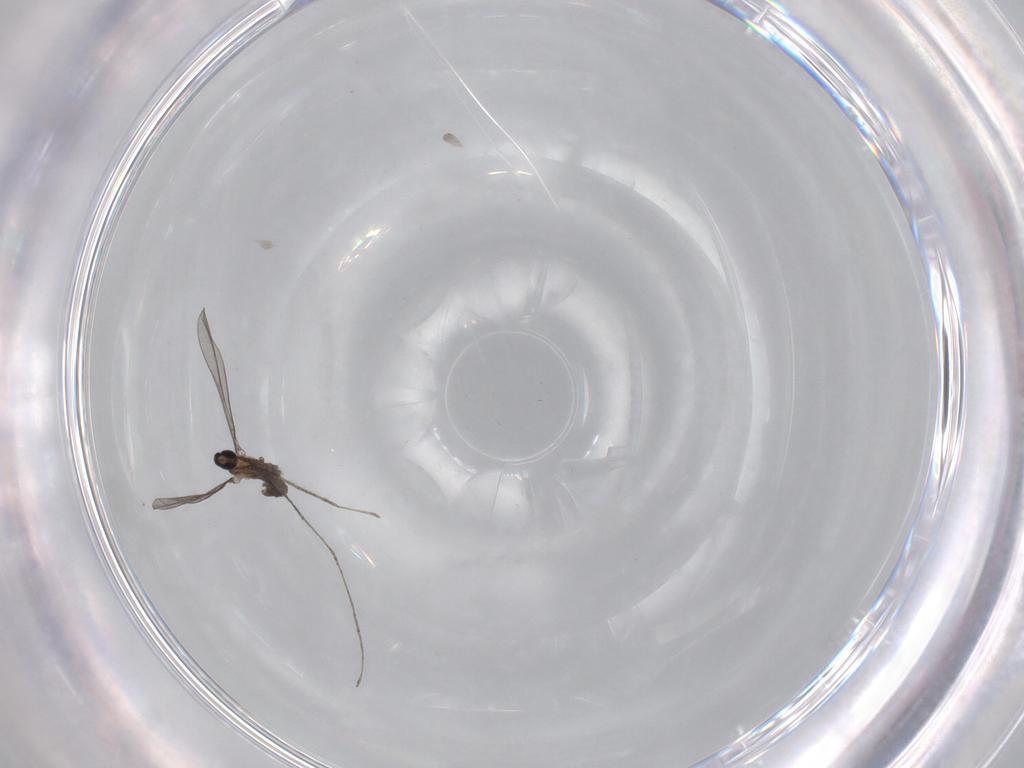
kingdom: Animalia
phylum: Arthropoda
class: Insecta
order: Diptera
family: Cecidomyiidae
